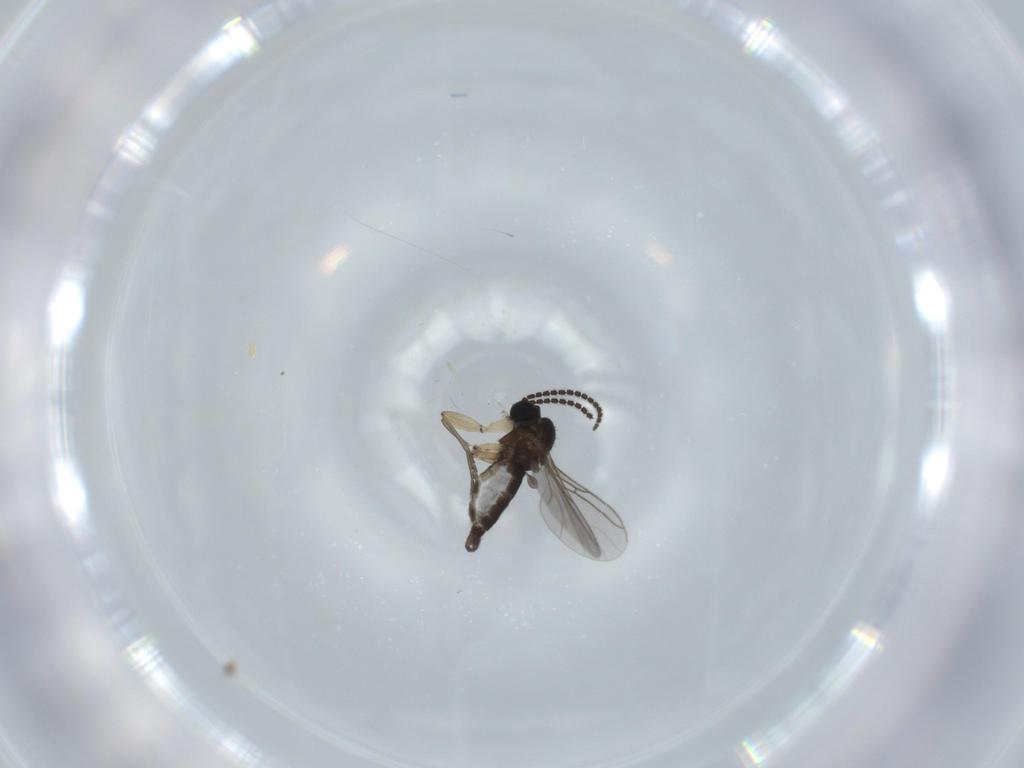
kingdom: Animalia
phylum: Arthropoda
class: Insecta
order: Diptera
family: Sciaridae
